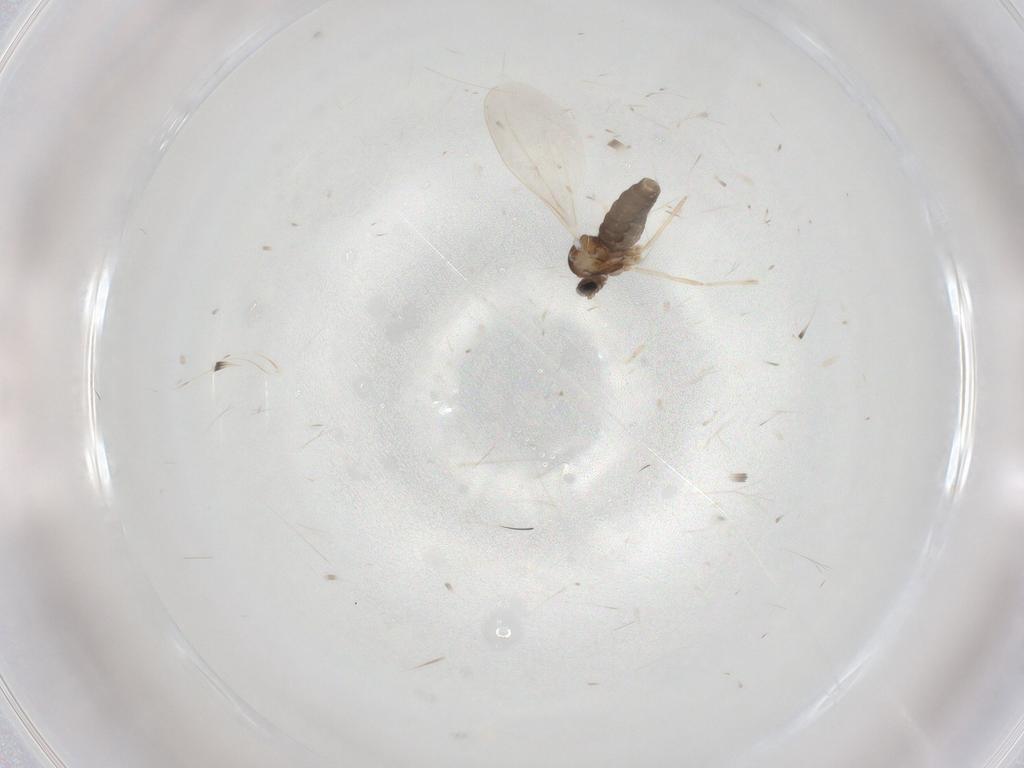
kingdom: Animalia
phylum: Arthropoda
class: Insecta
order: Diptera
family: Cecidomyiidae
